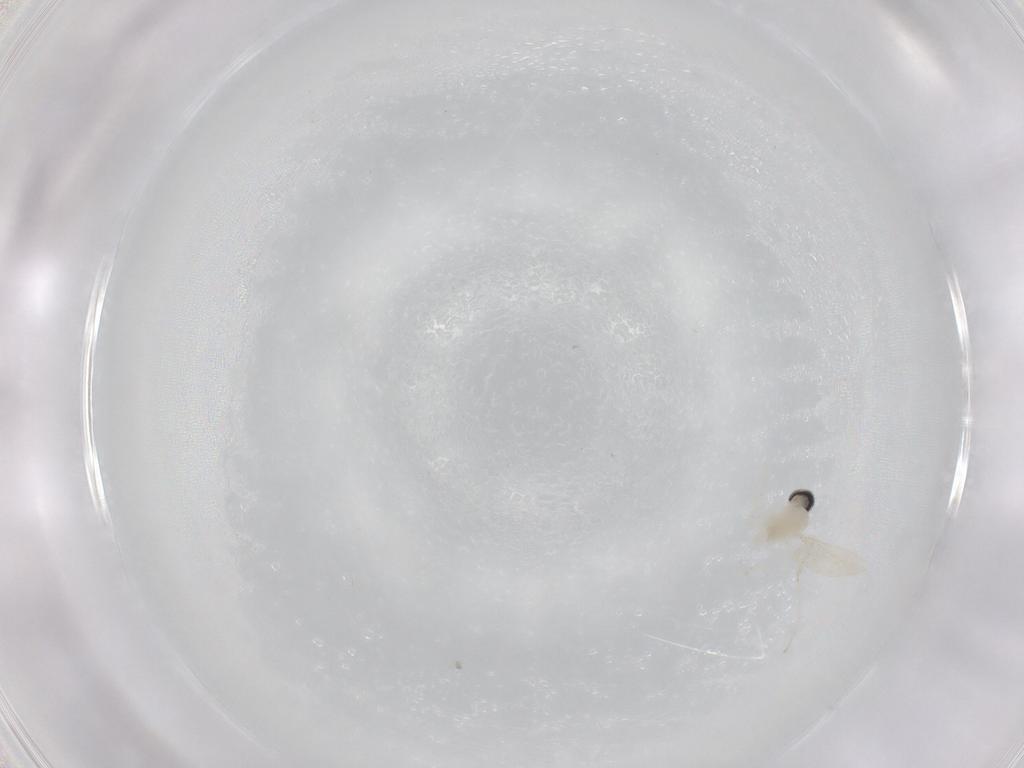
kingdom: Animalia
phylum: Arthropoda
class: Insecta
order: Diptera
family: Cecidomyiidae
